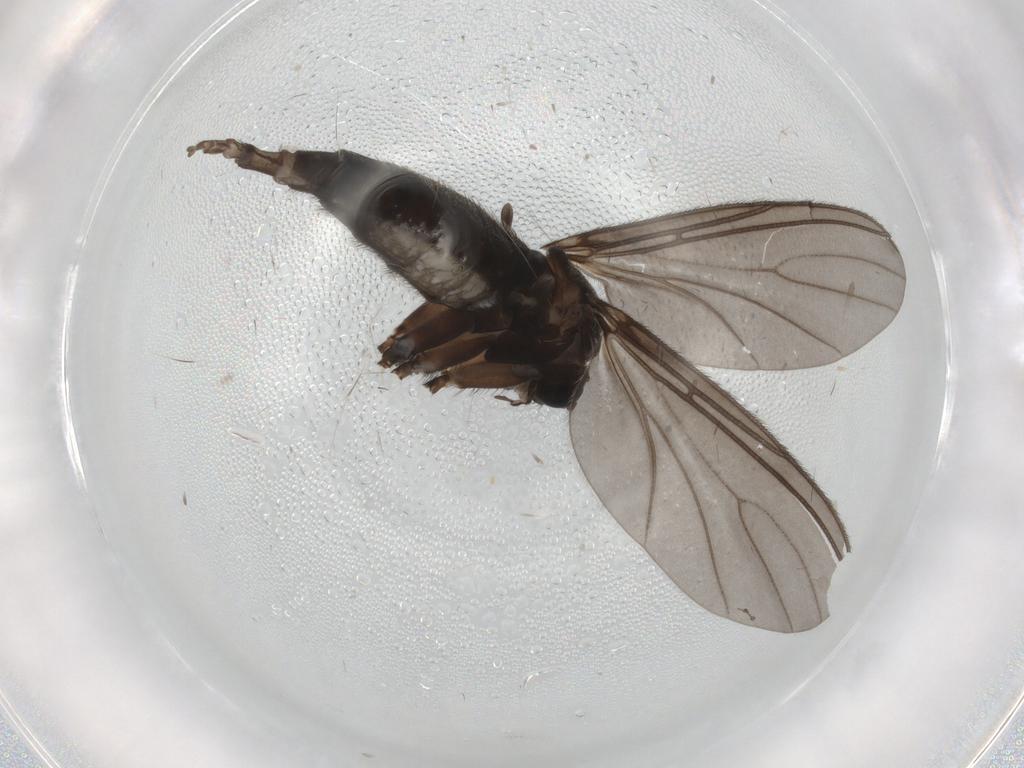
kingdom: Animalia
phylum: Arthropoda
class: Insecta
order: Diptera
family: Sciaridae
